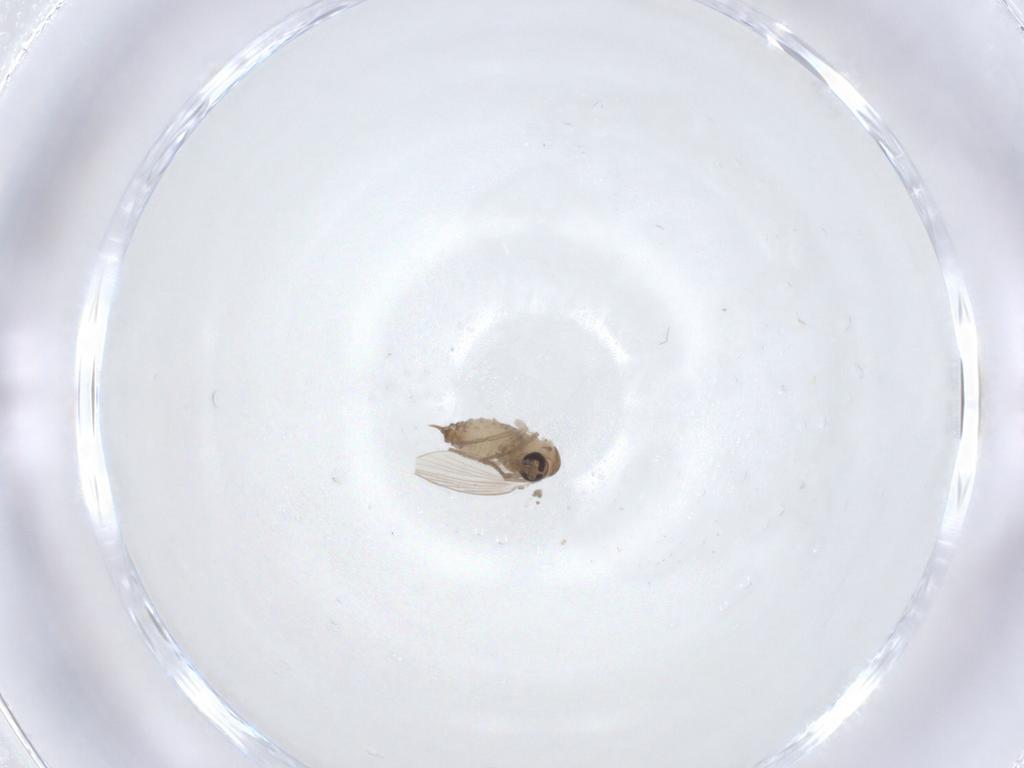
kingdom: Animalia
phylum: Arthropoda
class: Insecta
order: Diptera
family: Psychodidae
